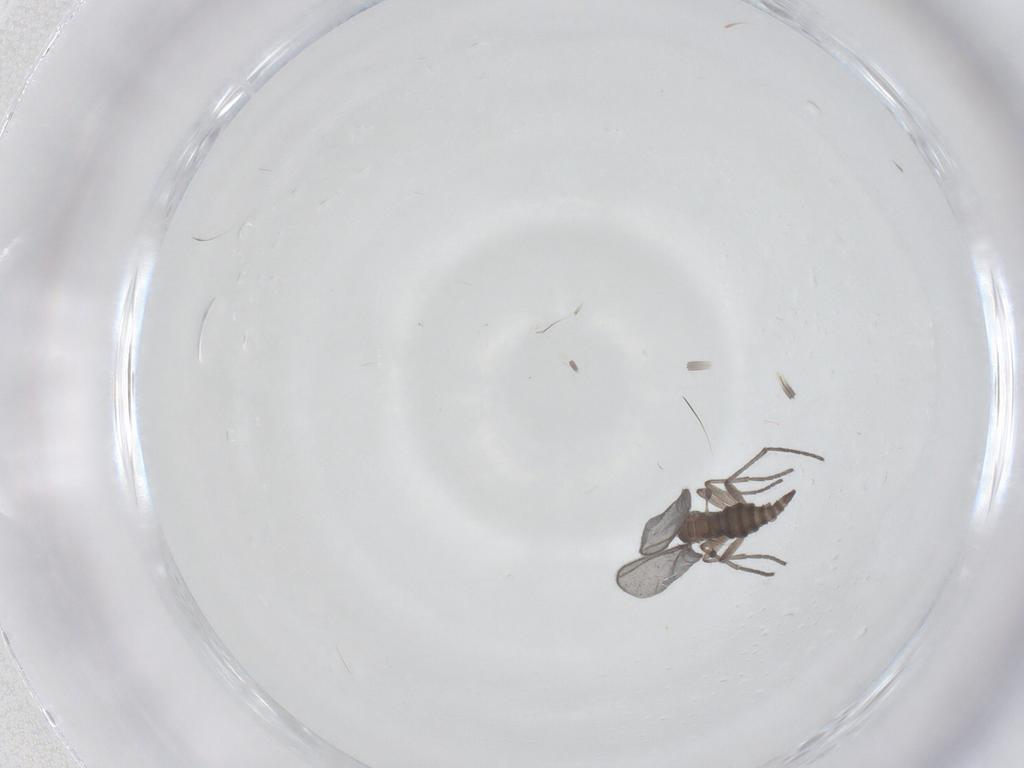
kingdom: Animalia
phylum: Arthropoda
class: Insecta
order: Diptera
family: Sciaridae
